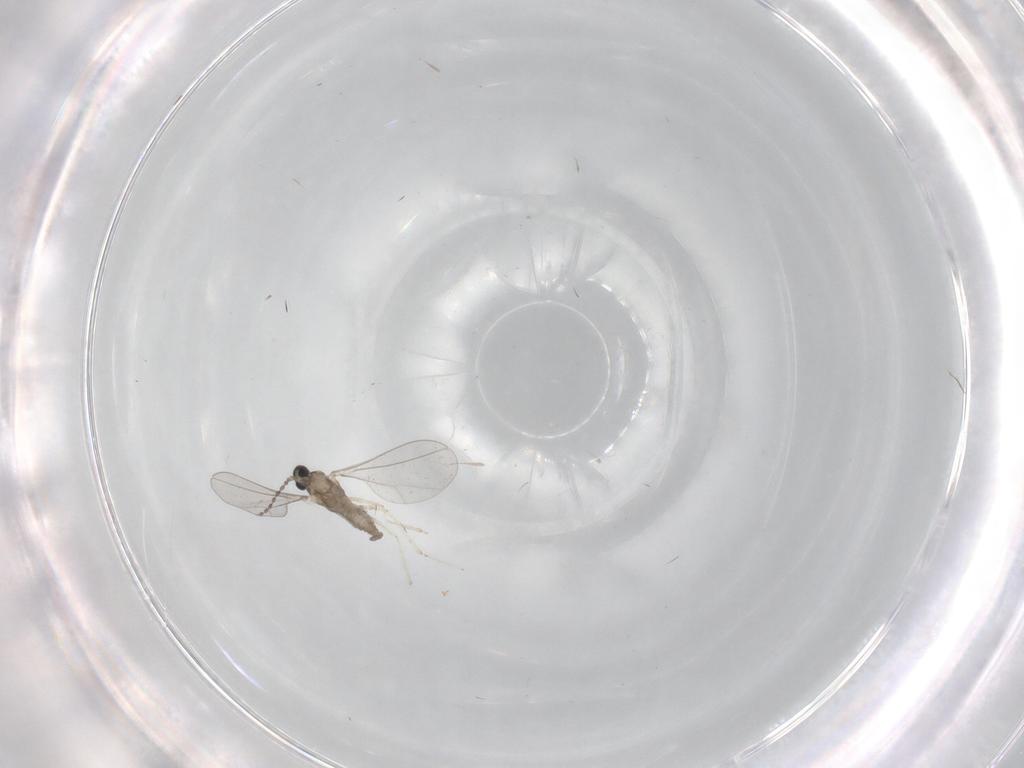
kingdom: Animalia
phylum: Arthropoda
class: Insecta
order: Diptera
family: Cecidomyiidae
